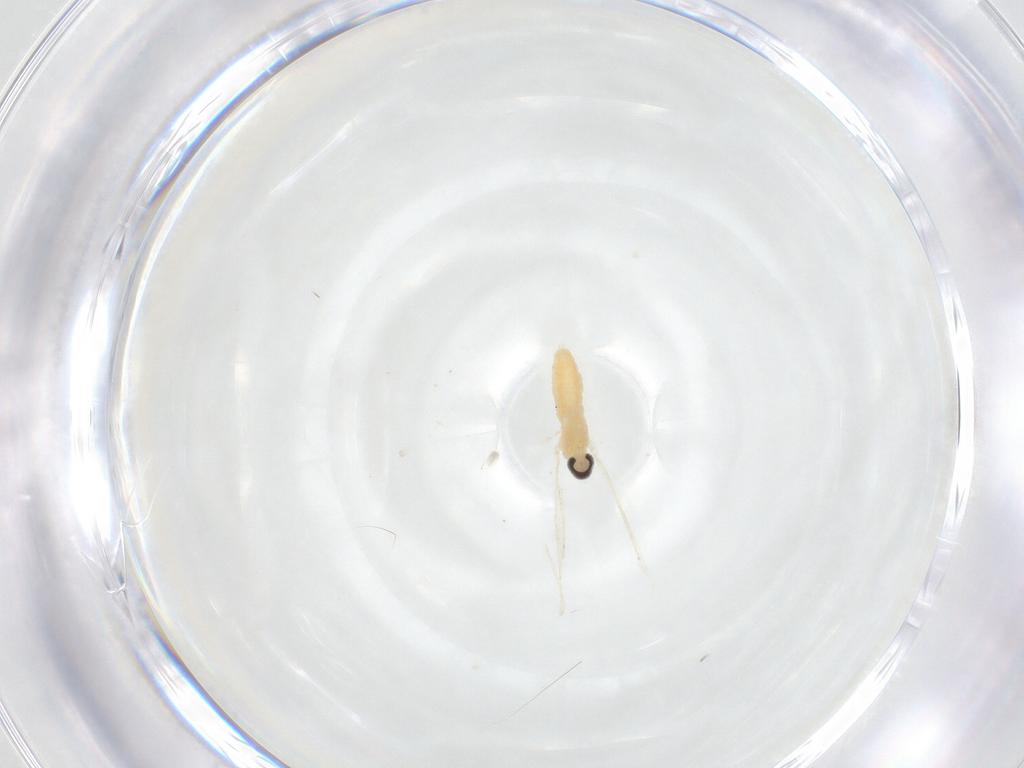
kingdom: Animalia
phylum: Arthropoda
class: Insecta
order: Diptera
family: Cecidomyiidae
